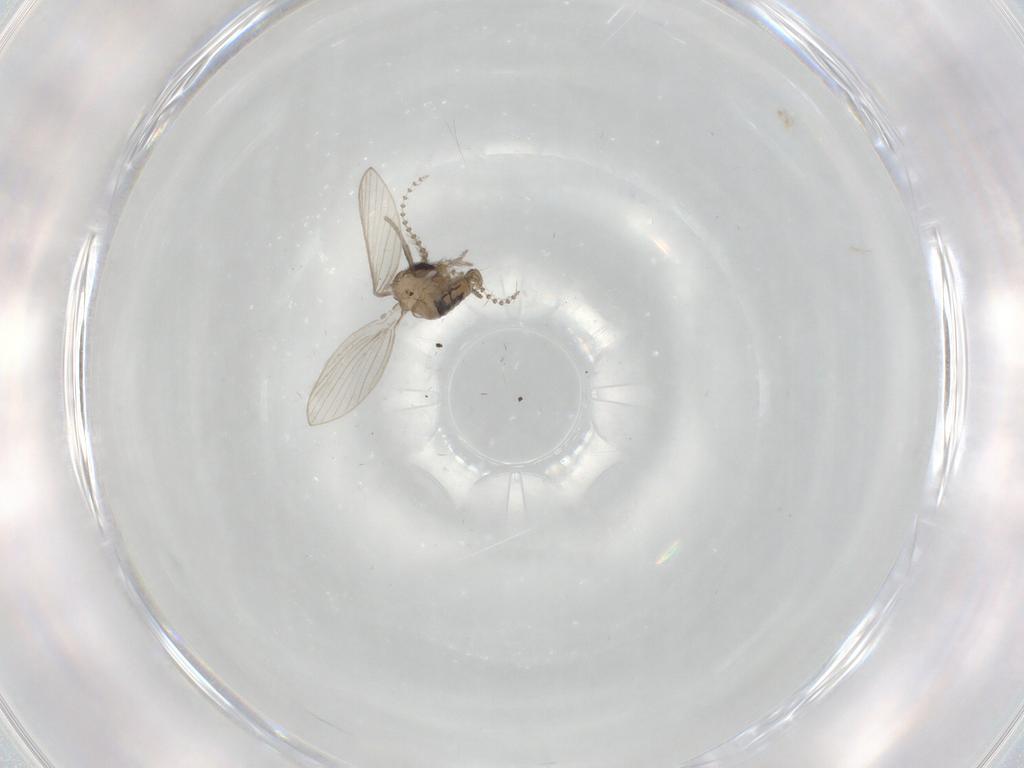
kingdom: Animalia
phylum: Arthropoda
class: Insecta
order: Diptera
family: Psychodidae
